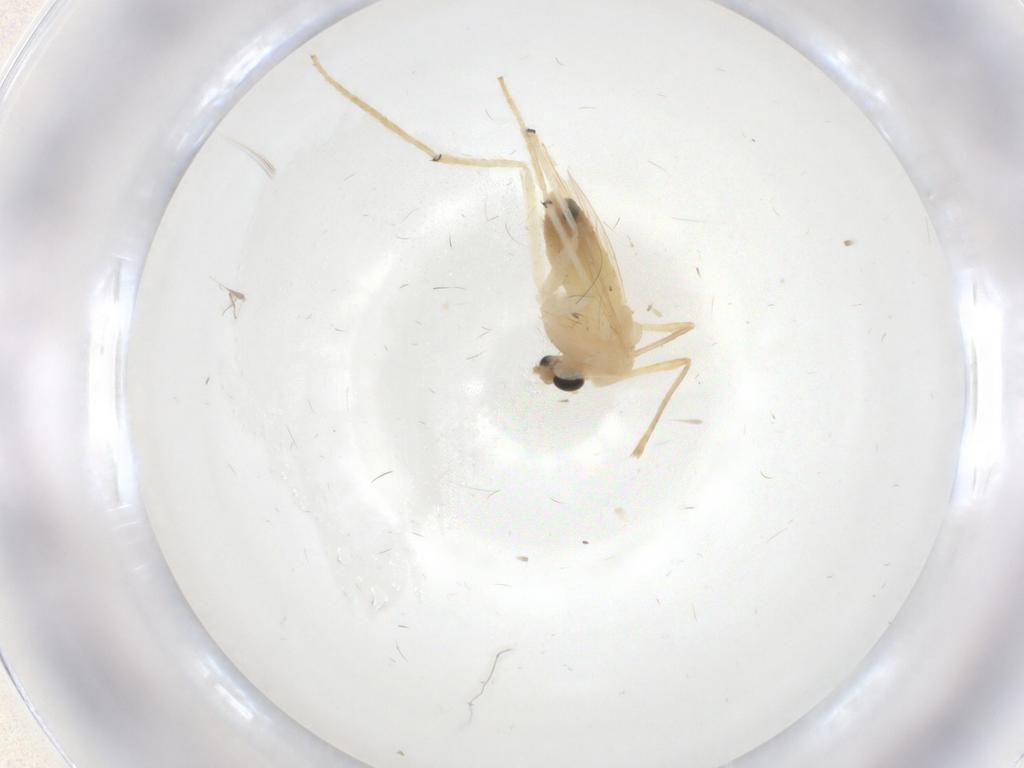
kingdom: Animalia
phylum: Arthropoda
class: Insecta
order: Diptera
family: Chironomidae
